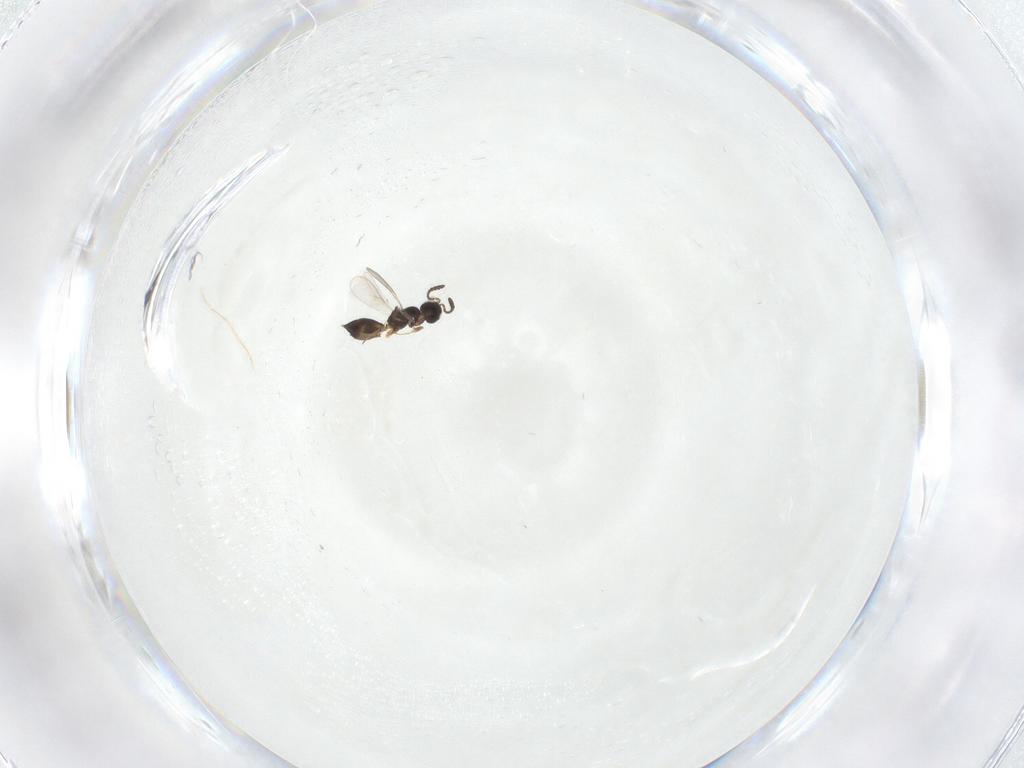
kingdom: Animalia
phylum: Arthropoda
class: Insecta
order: Hymenoptera
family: Scelionidae
